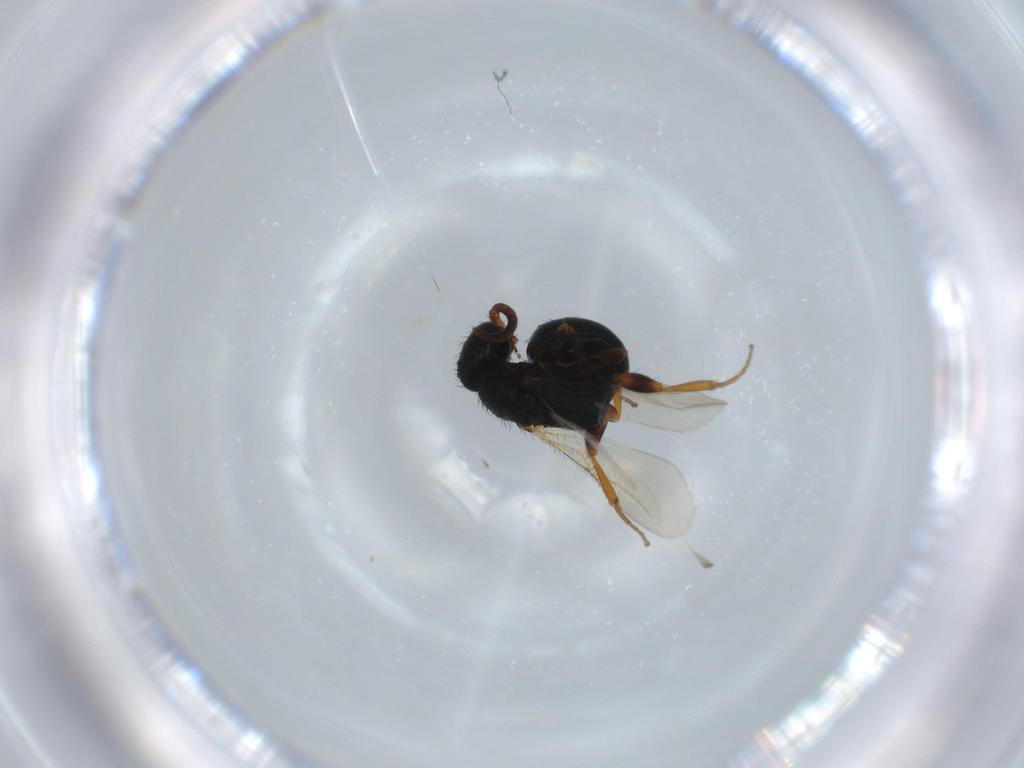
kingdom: Animalia
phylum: Arthropoda
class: Insecta
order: Hymenoptera
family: Bethylidae
